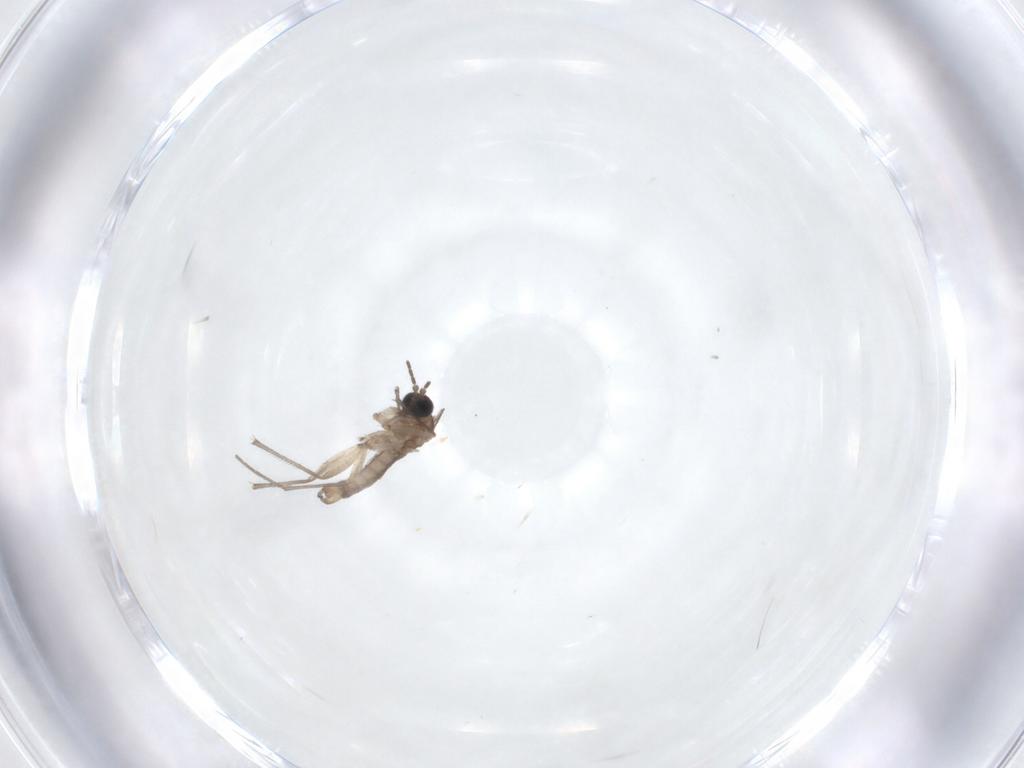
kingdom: Animalia
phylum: Arthropoda
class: Insecta
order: Diptera
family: Sciaridae
